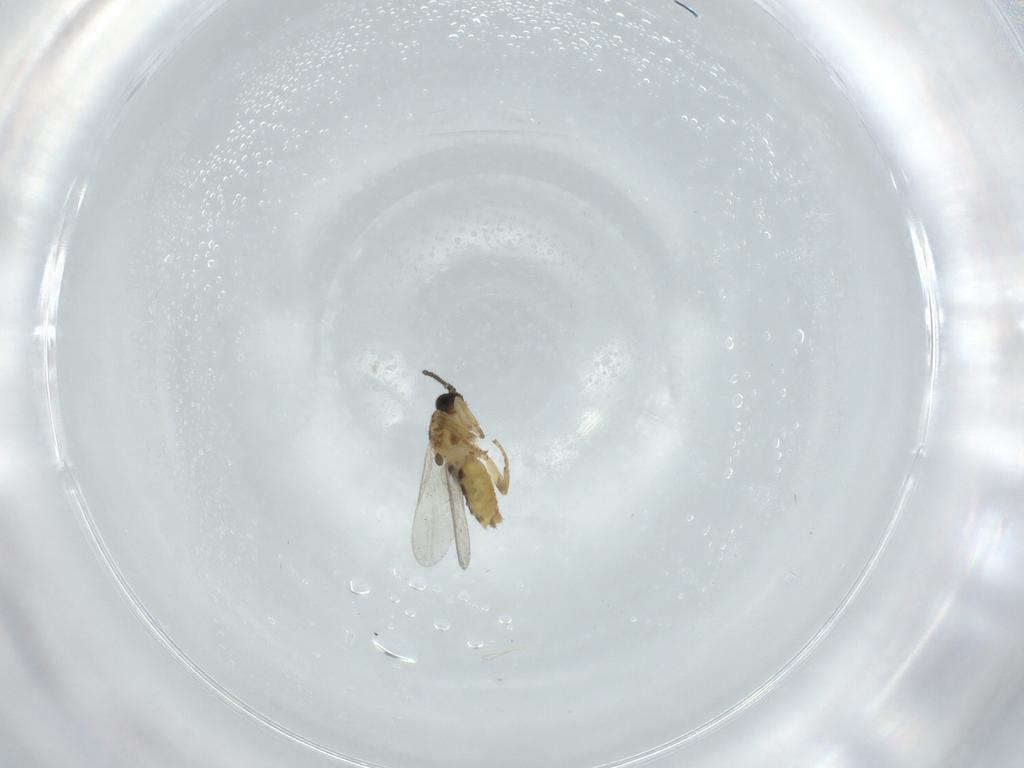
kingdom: Animalia
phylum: Arthropoda
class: Insecta
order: Diptera
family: Scatopsidae
